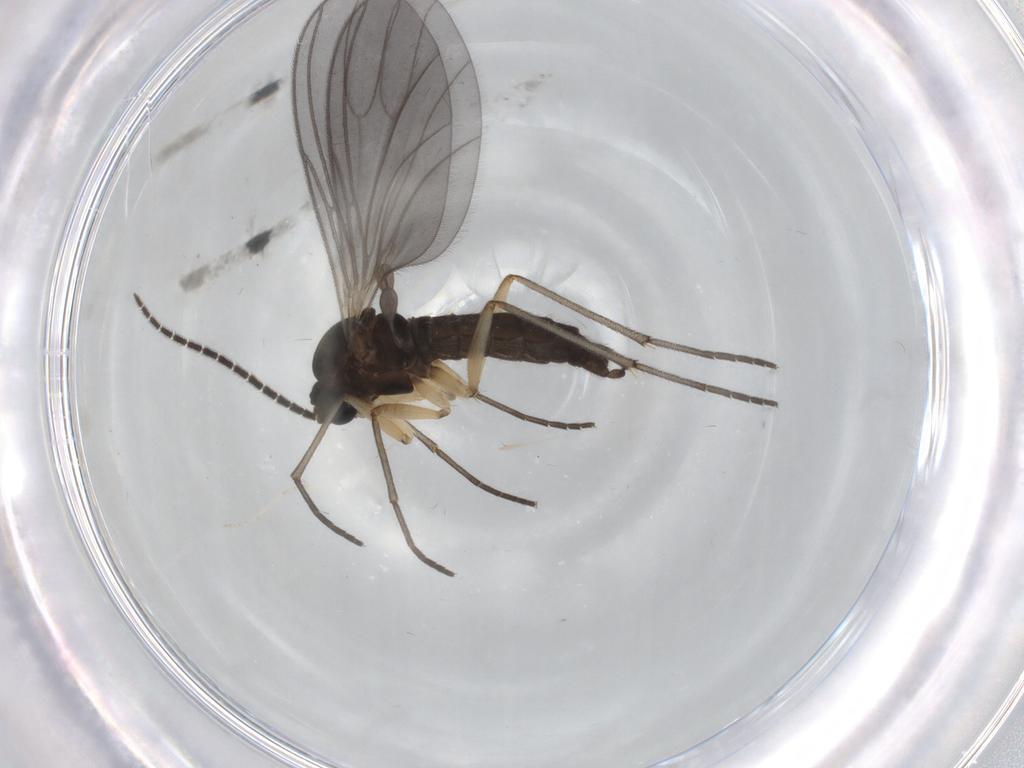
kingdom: Animalia
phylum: Arthropoda
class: Insecta
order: Diptera
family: Sciaridae
